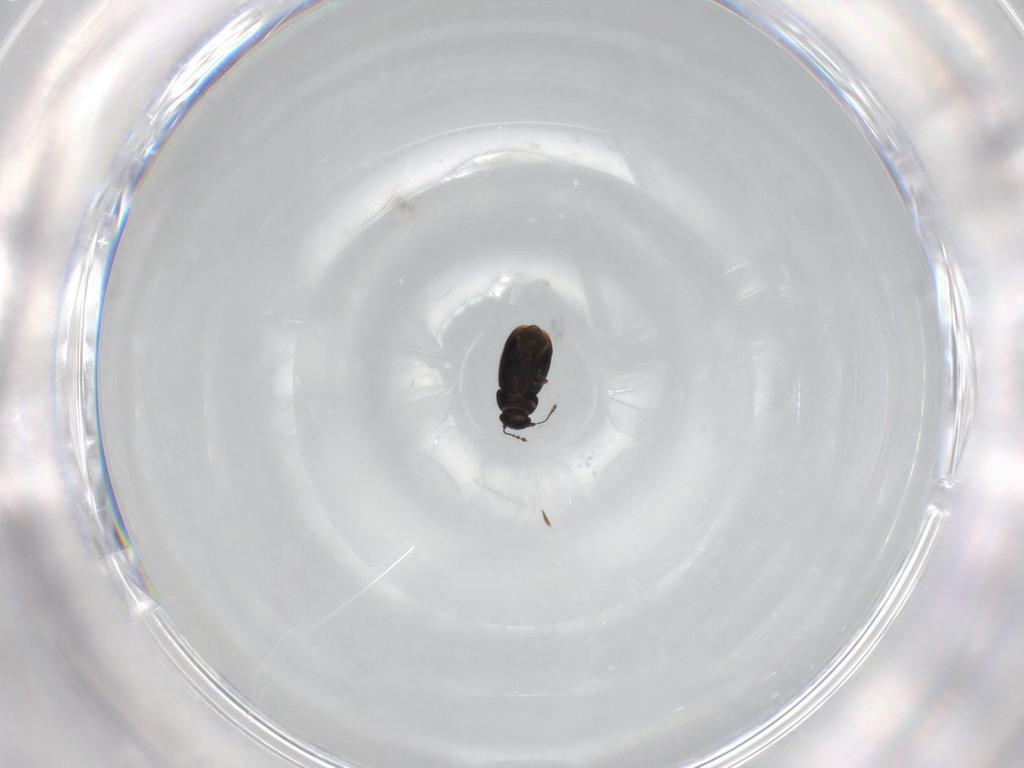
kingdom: Animalia
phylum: Arthropoda
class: Insecta
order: Coleoptera
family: Ptiliidae
